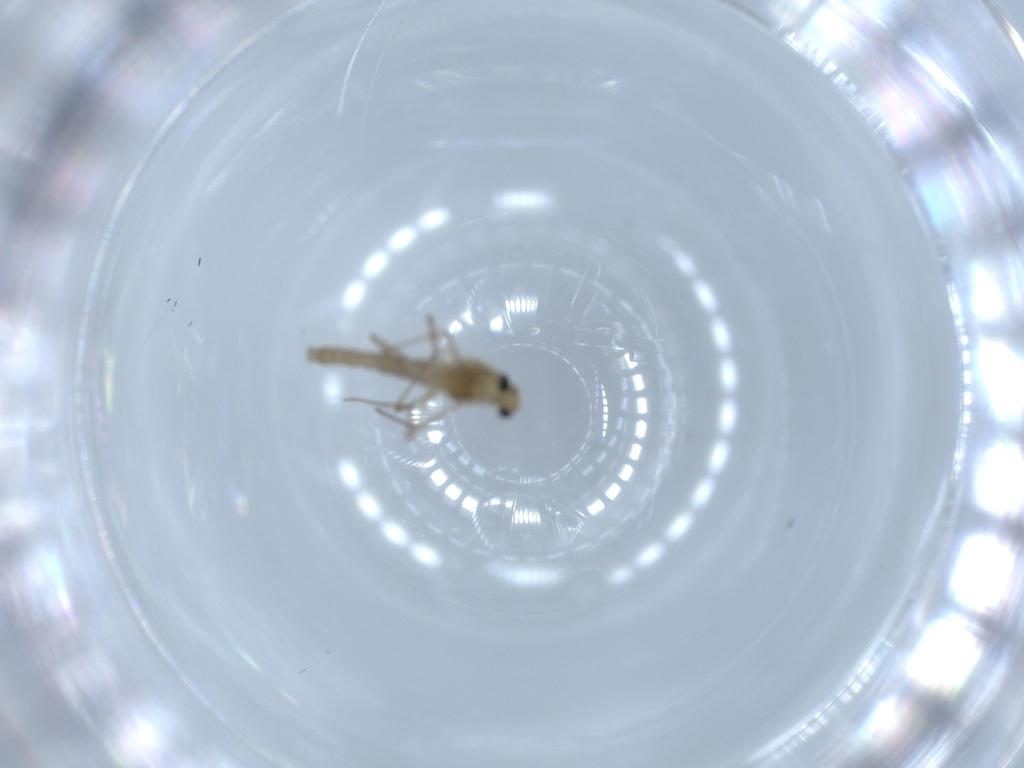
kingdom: Animalia
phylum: Arthropoda
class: Insecta
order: Diptera
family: Chironomidae
